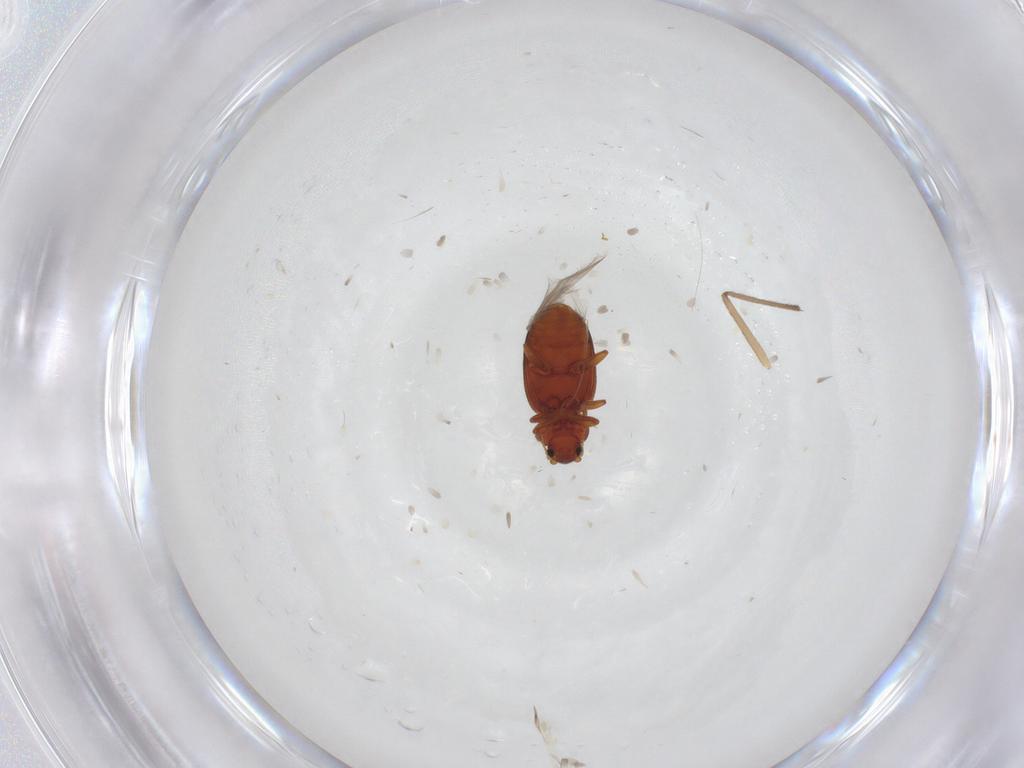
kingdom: Animalia
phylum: Arthropoda
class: Insecta
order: Coleoptera
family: Latridiidae
